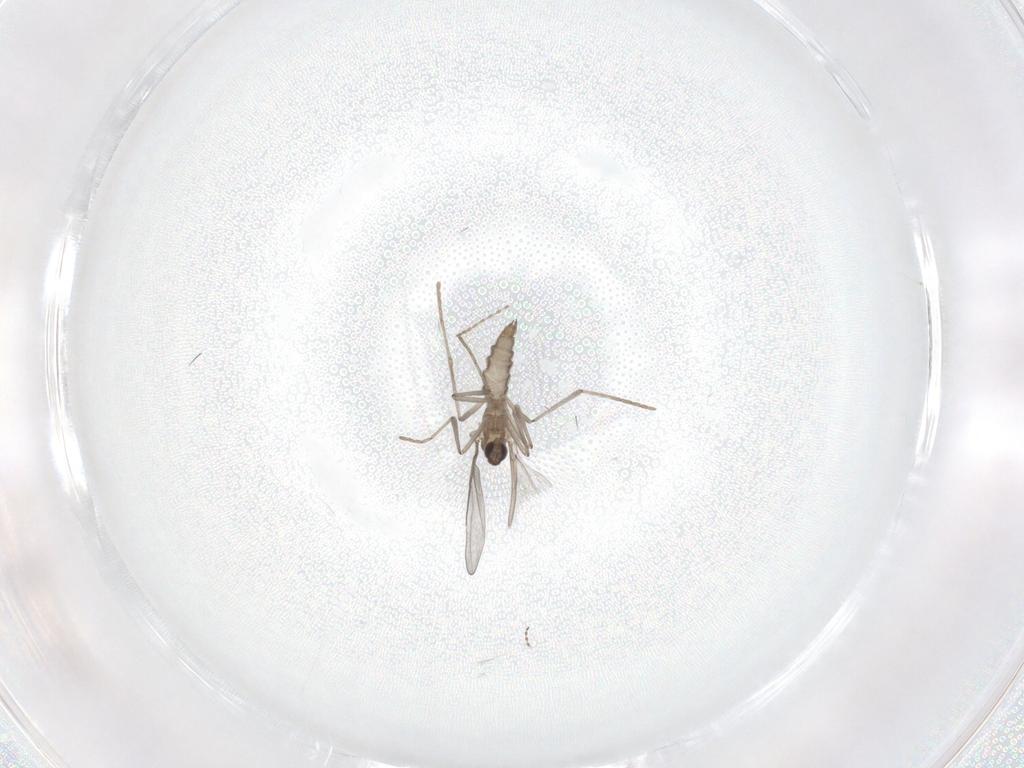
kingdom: Animalia
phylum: Arthropoda
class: Insecta
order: Diptera
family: Cecidomyiidae
